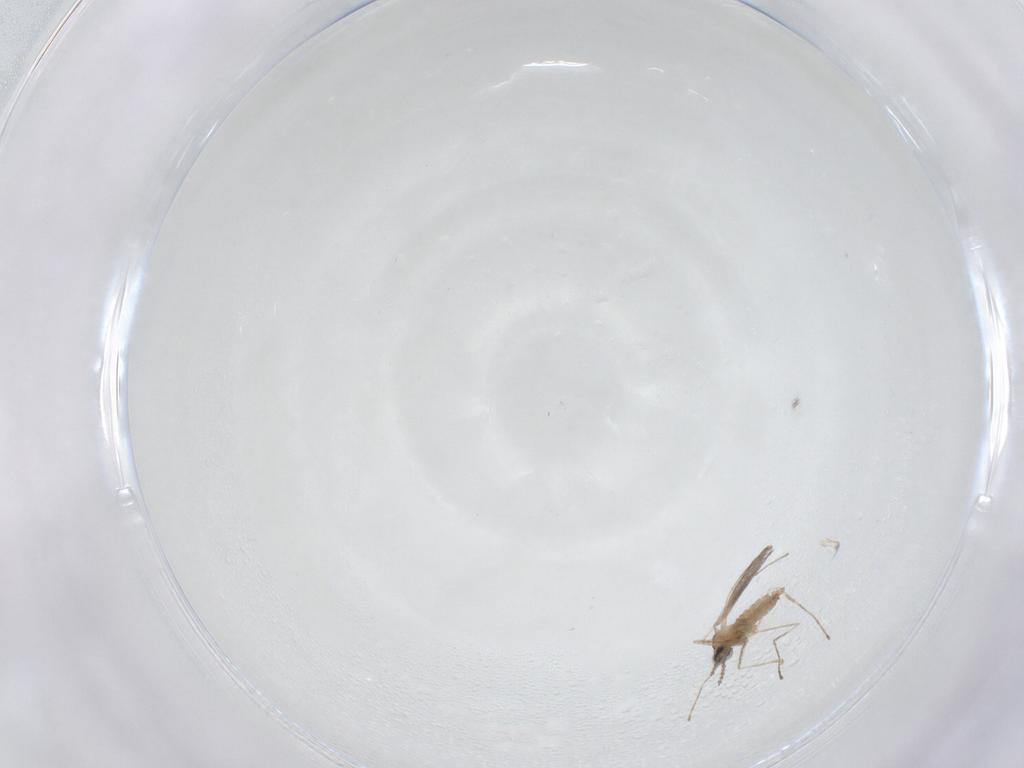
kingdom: Animalia
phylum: Arthropoda
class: Insecta
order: Diptera
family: Cecidomyiidae
